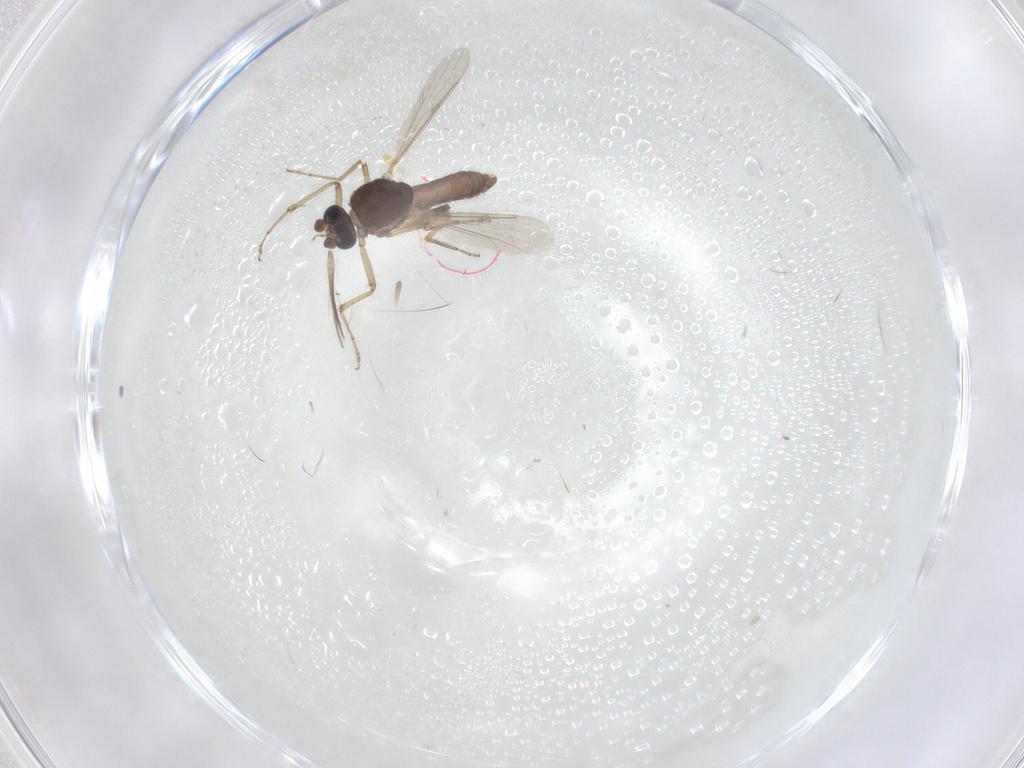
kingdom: Animalia
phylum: Arthropoda
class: Insecta
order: Diptera
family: Ceratopogonidae
